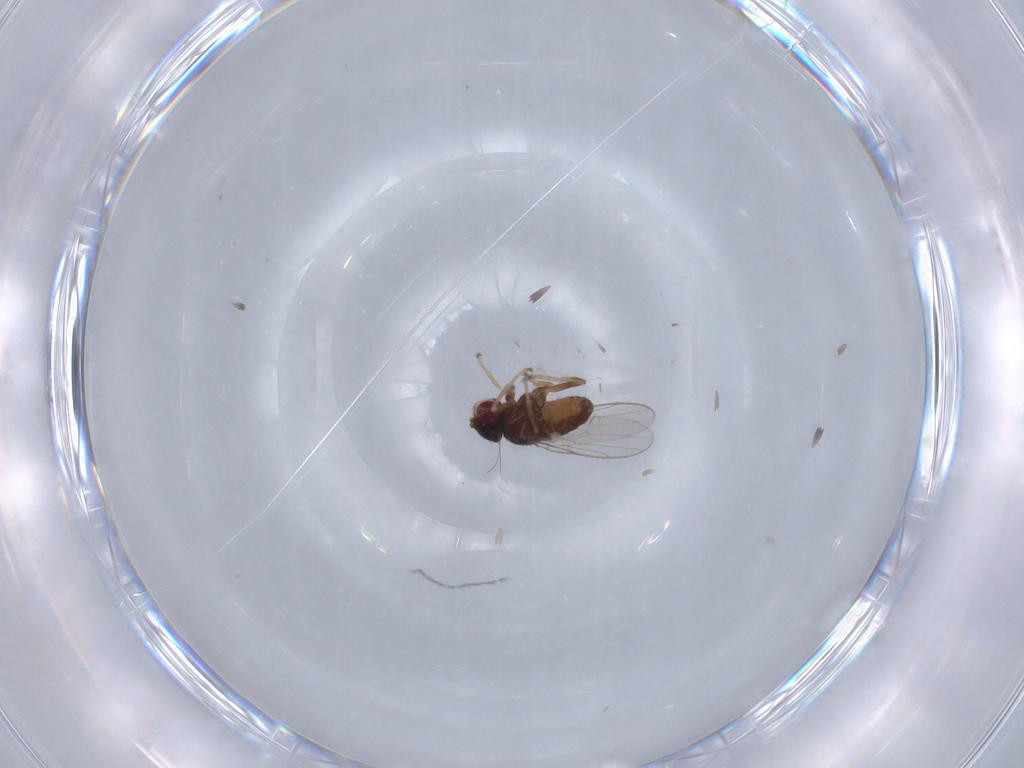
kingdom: Animalia
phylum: Arthropoda
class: Insecta
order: Diptera
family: Chloropidae
